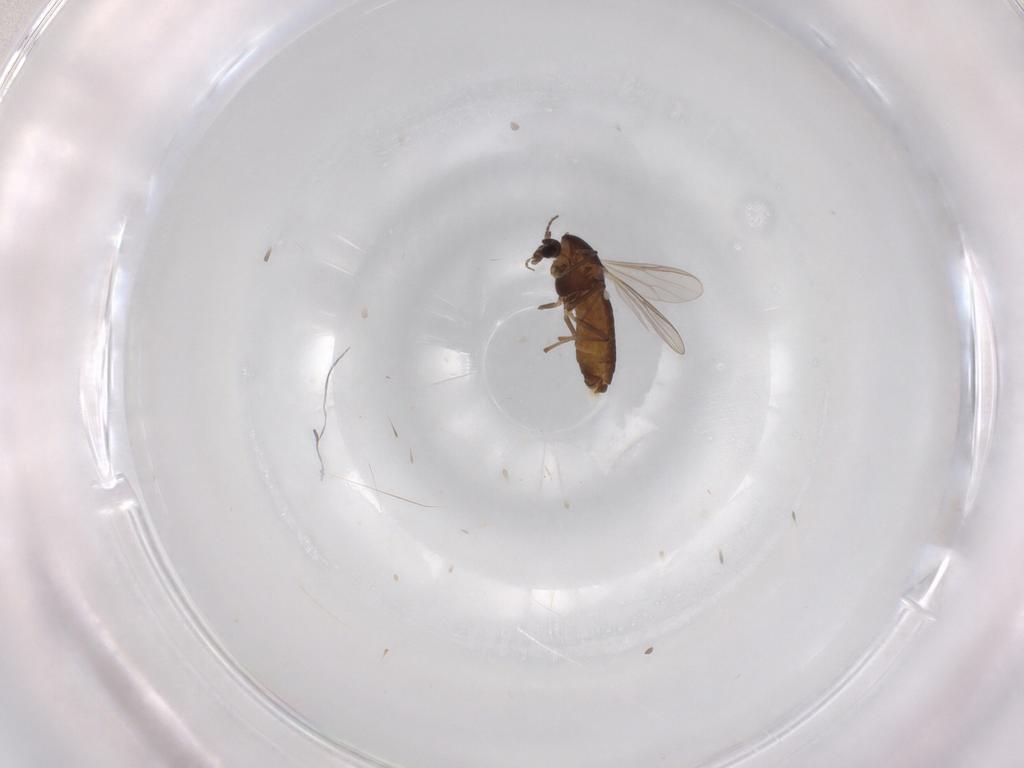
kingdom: Animalia
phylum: Arthropoda
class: Insecta
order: Diptera
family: Chironomidae
